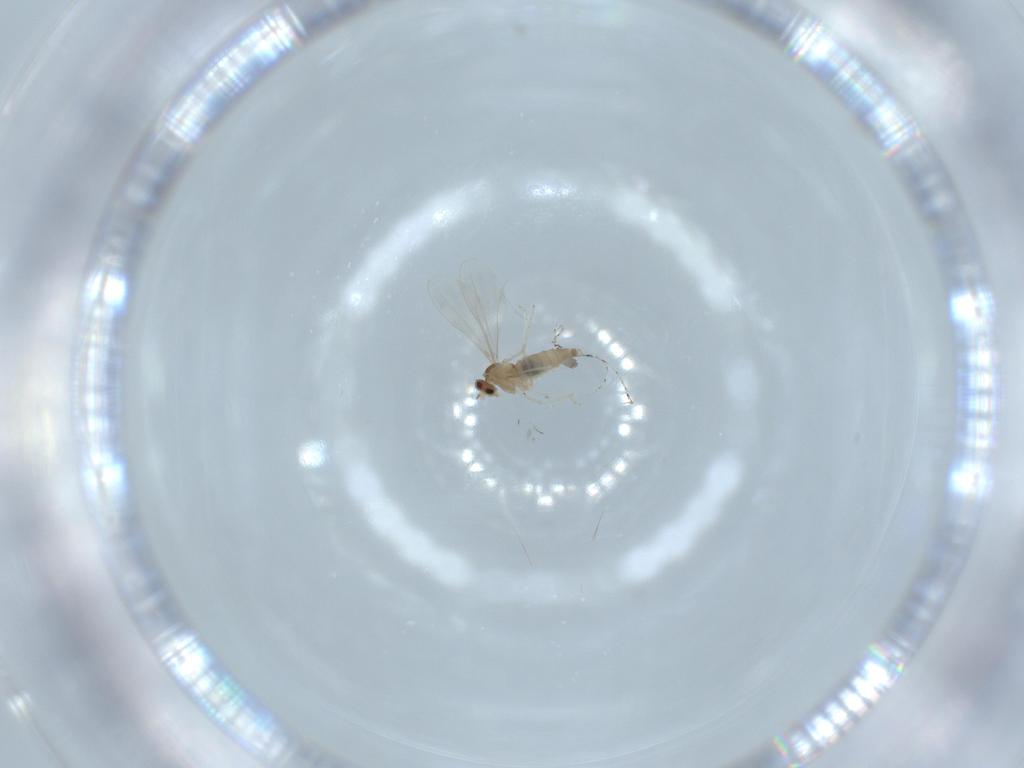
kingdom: Animalia
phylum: Arthropoda
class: Insecta
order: Diptera
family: Cecidomyiidae
